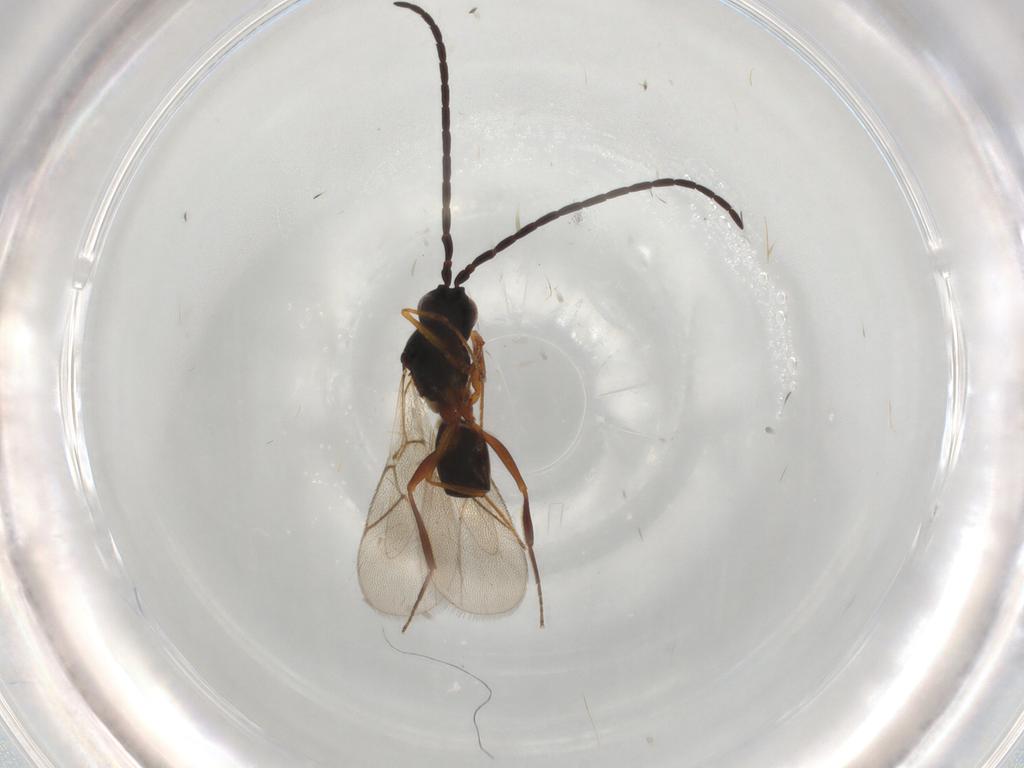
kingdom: Animalia
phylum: Arthropoda
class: Insecta
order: Hymenoptera
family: Figitidae
